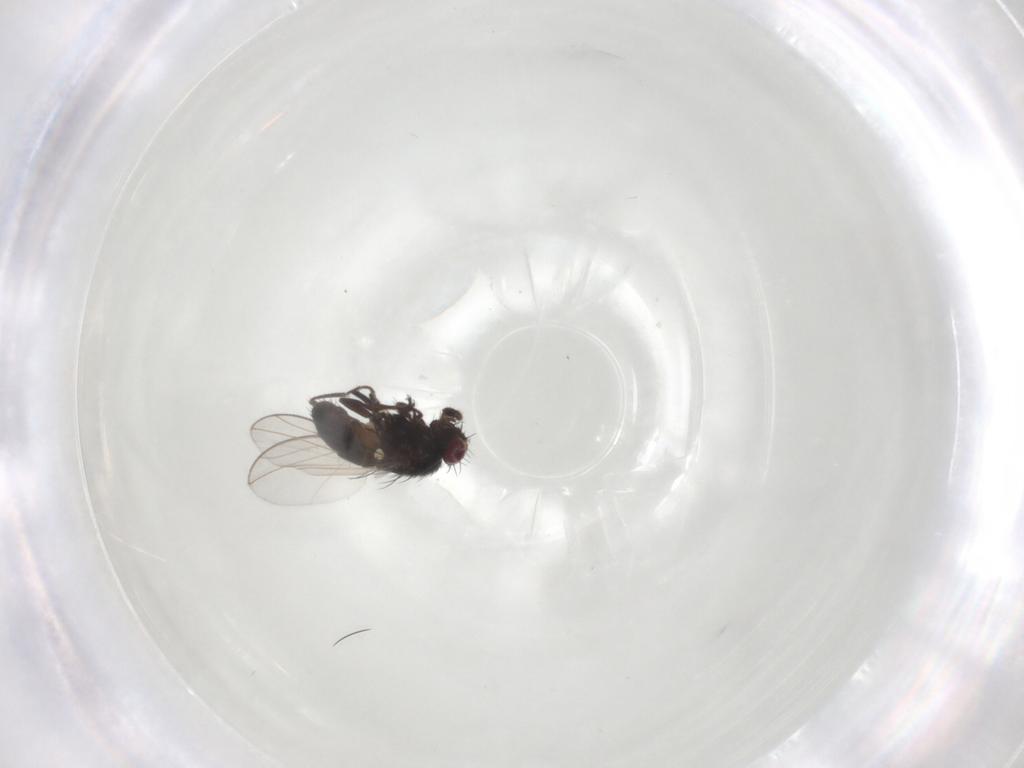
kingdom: Animalia
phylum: Arthropoda
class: Insecta
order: Diptera
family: Carnidae
